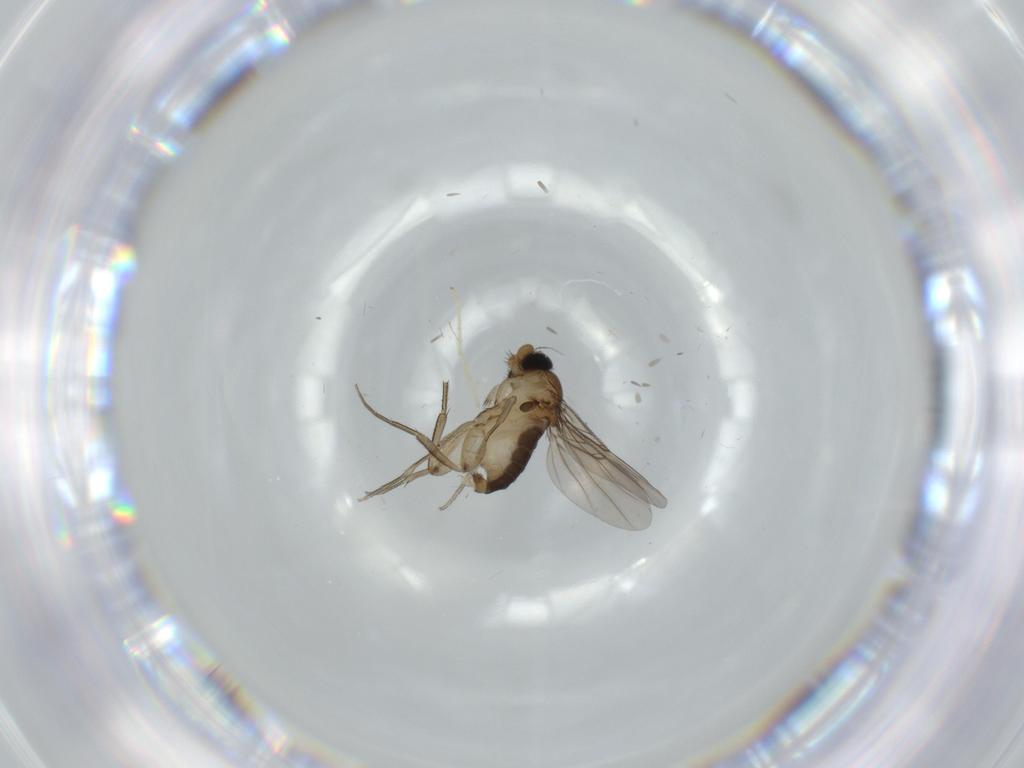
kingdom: Animalia
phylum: Arthropoda
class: Insecta
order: Diptera
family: Phoridae
